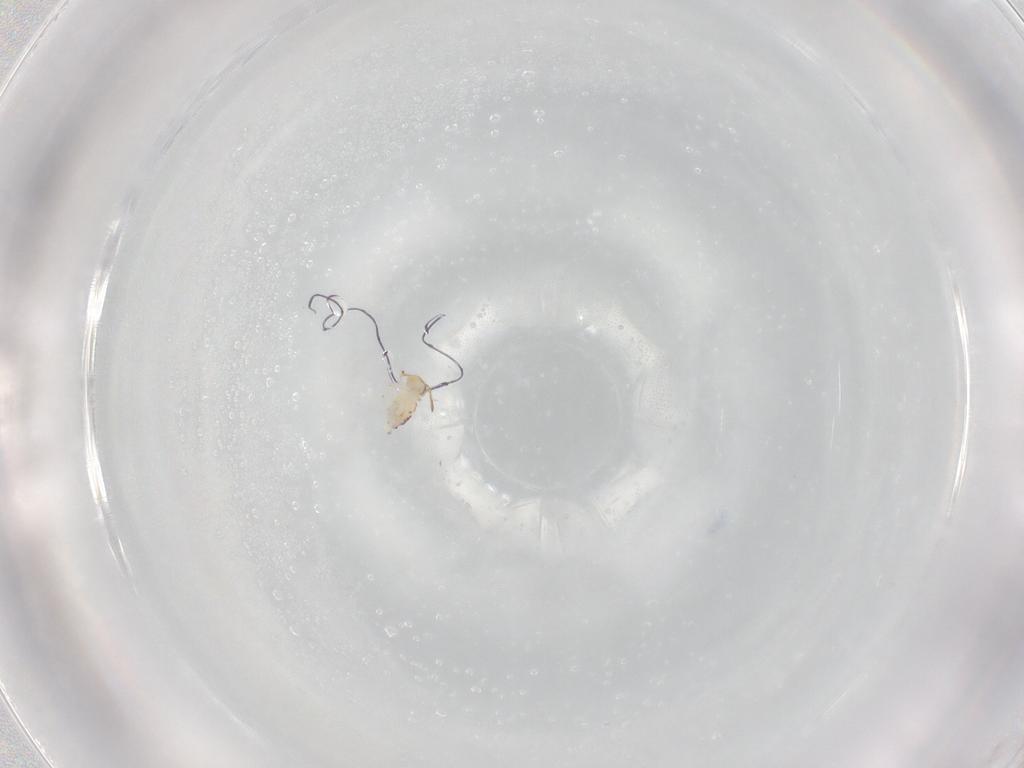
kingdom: Animalia
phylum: Arthropoda
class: Collembola
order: Symphypleona
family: Bourletiellidae
